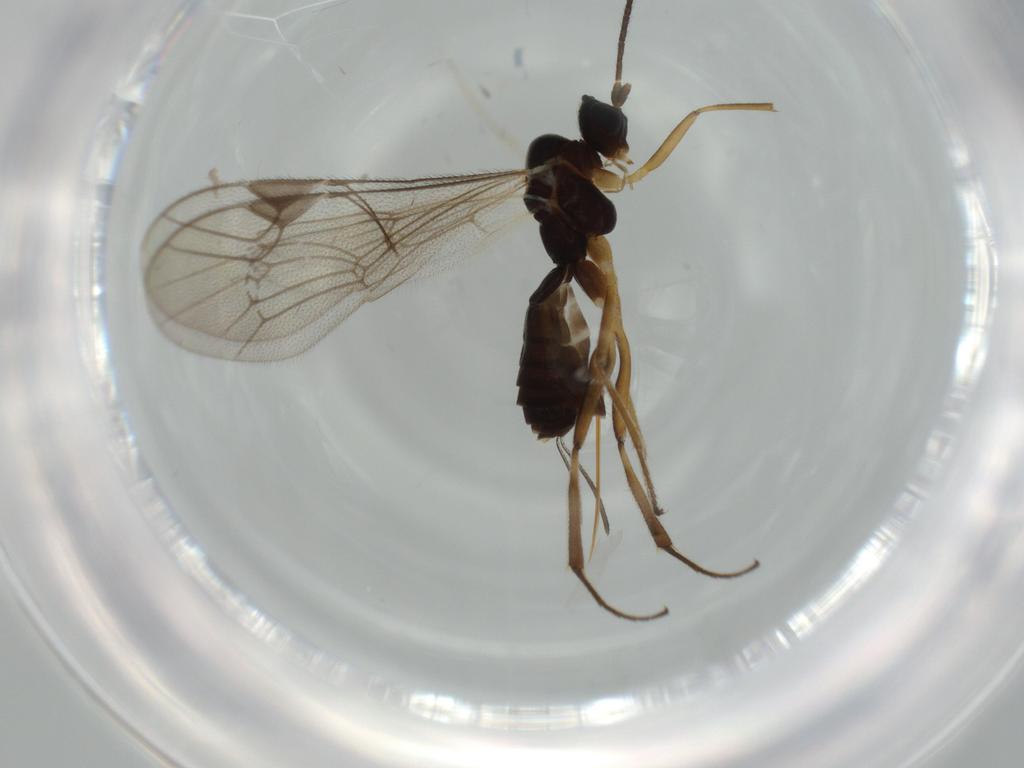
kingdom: Animalia
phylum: Arthropoda
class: Insecta
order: Hymenoptera
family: Ichneumonidae
